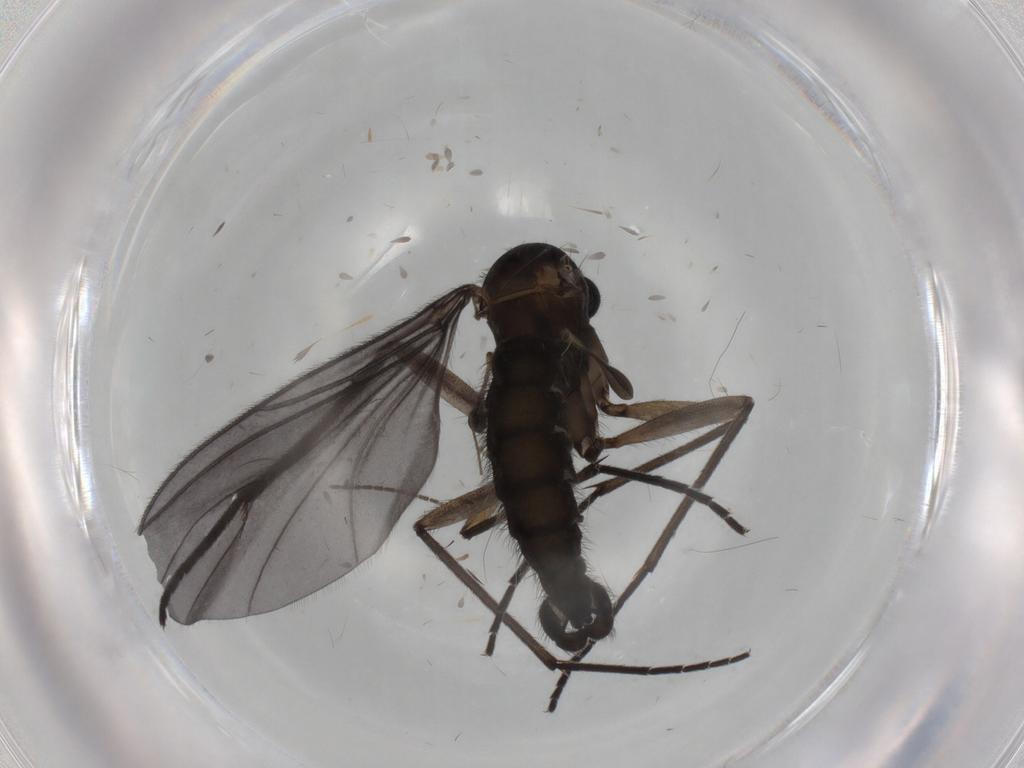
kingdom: Animalia
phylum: Arthropoda
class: Insecta
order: Diptera
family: Sciaridae
